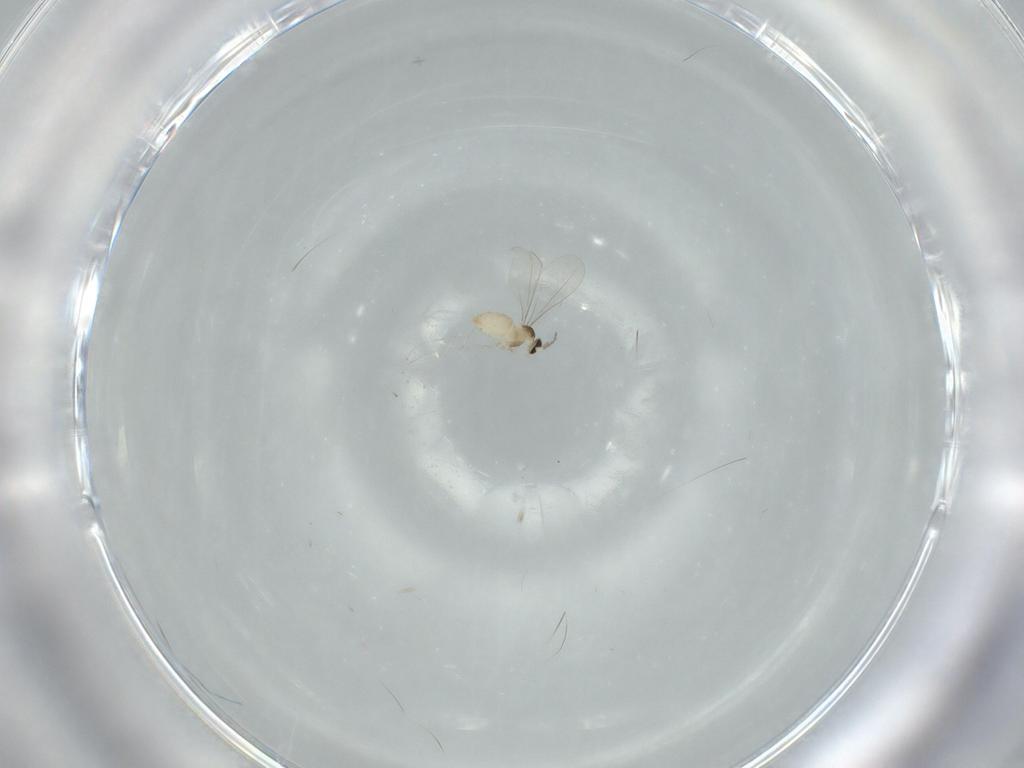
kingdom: Animalia
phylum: Arthropoda
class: Insecta
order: Diptera
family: Cecidomyiidae
